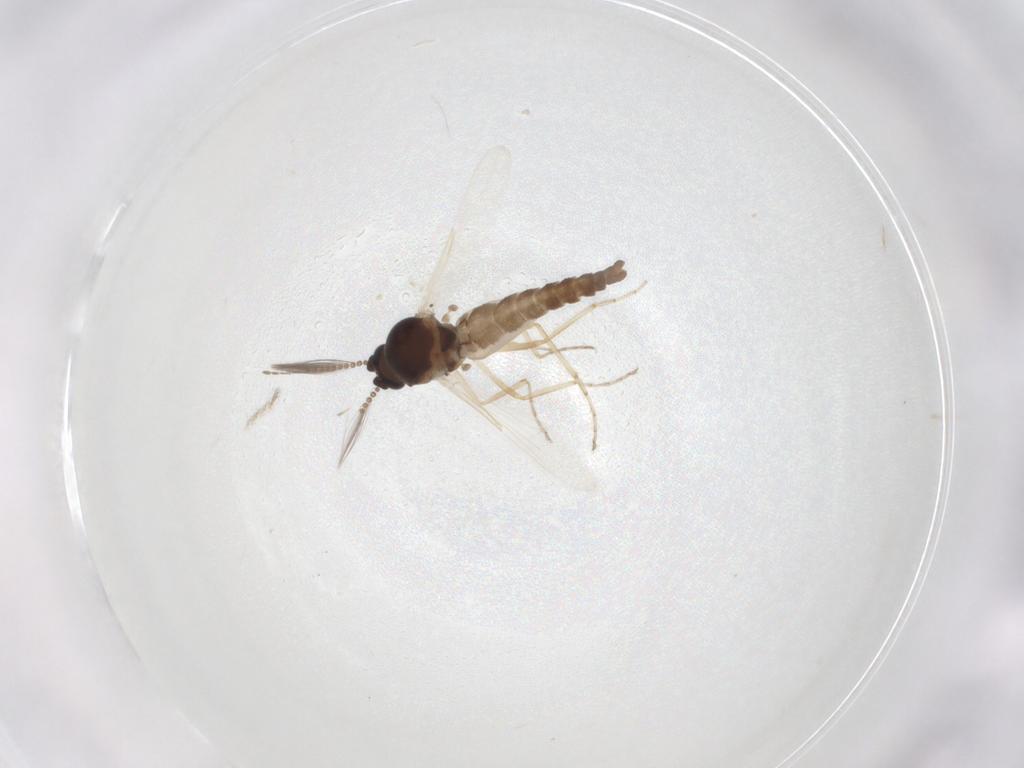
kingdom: Animalia
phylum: Arthropoda
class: Insecta
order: Diptera
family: Ceratopogonidae
